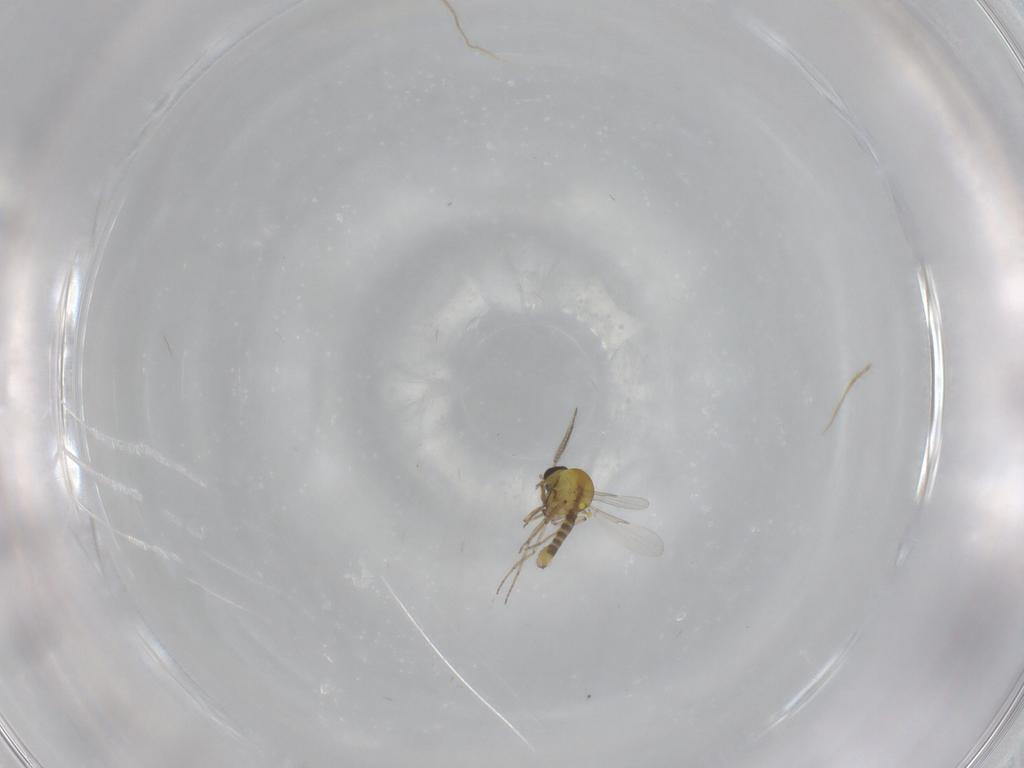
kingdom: Animalia
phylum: Arthropoda
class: Insecta
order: Diptera
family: Ceratopogonidae
